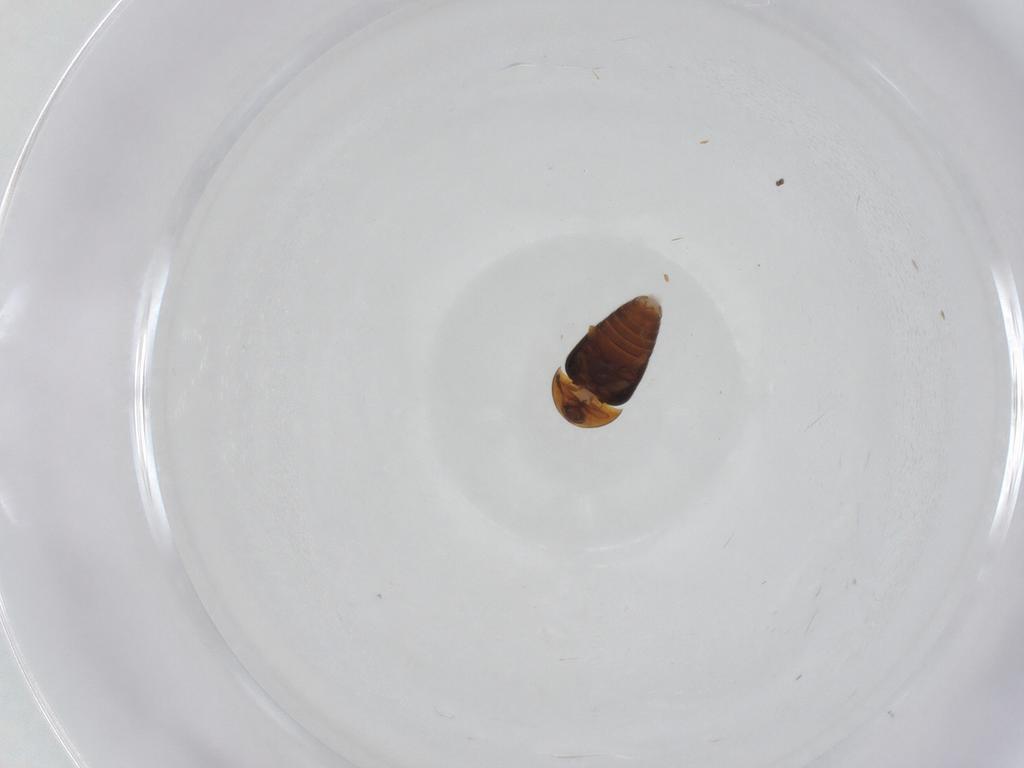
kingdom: Animalia
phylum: Arthropoda
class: Insecta
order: Coleoptera
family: Corylophidae
